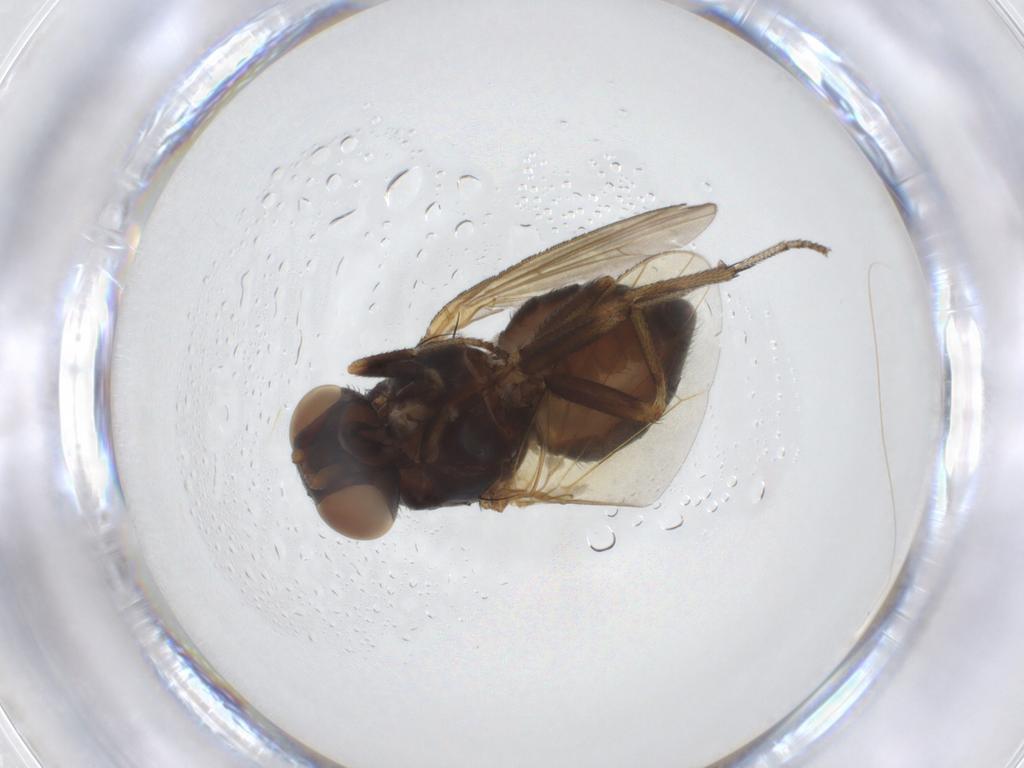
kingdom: Animalia
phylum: Arthropoda
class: Insecta
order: Diptera
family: Lauxaniidae
